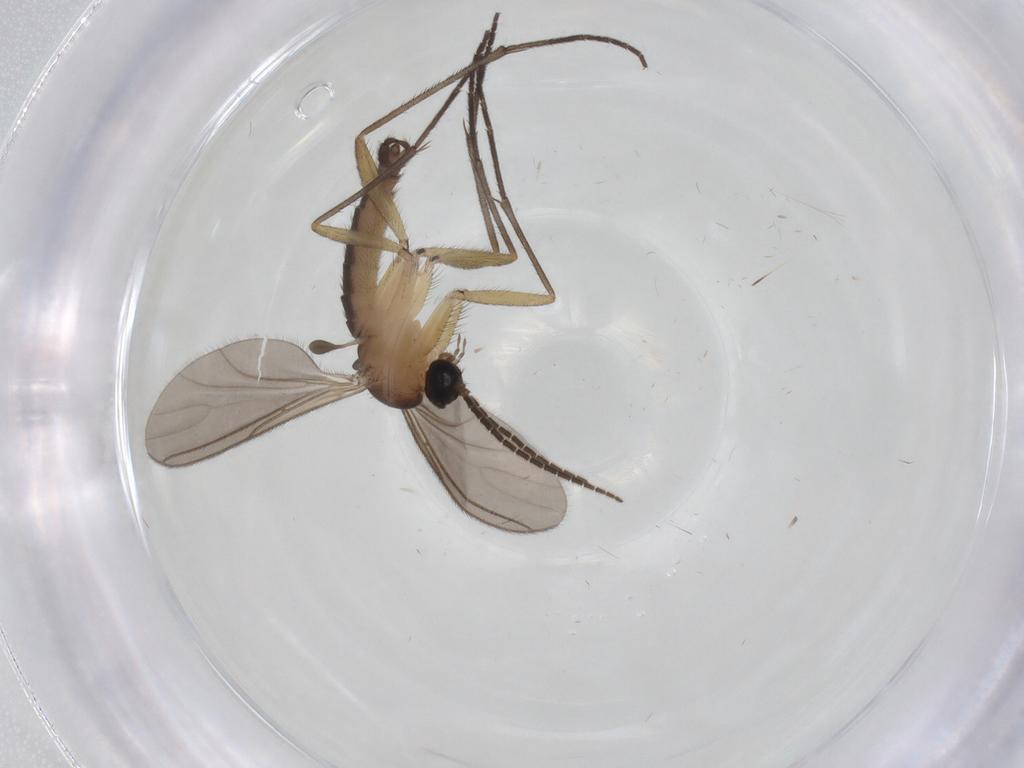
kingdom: Animalia
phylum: Arthropoda
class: Insecta
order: Diptera
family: Sciaridae
